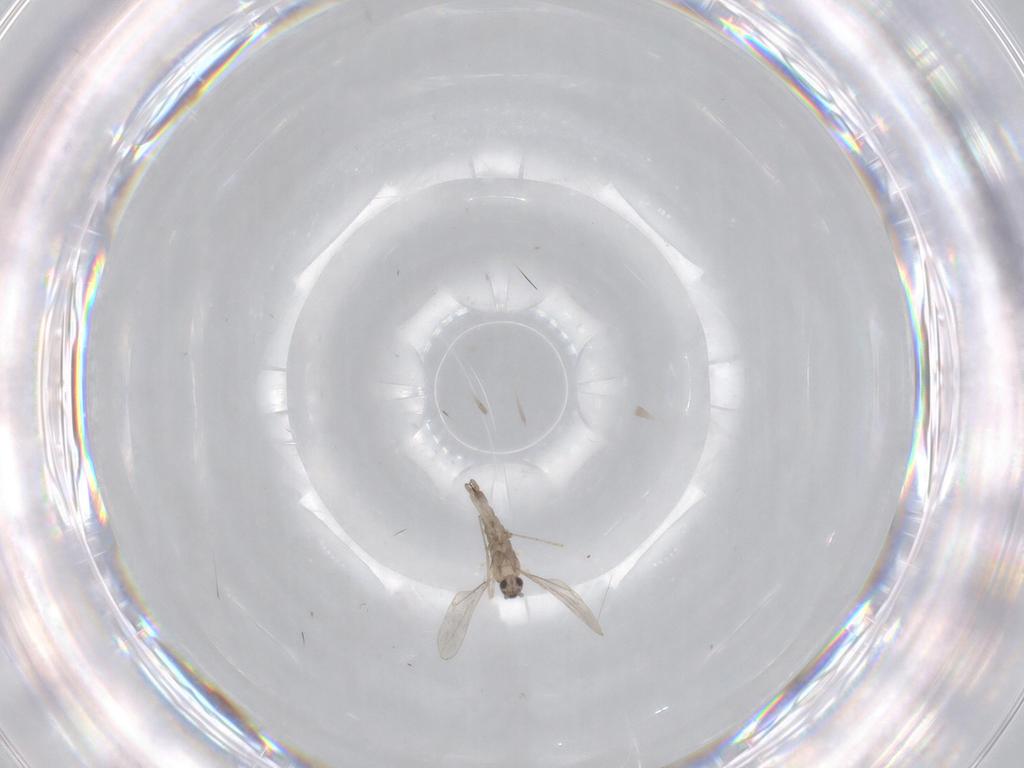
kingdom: Animalia
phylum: Arthropoda
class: Insecta
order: Diptera
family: Cecidomyiidae
